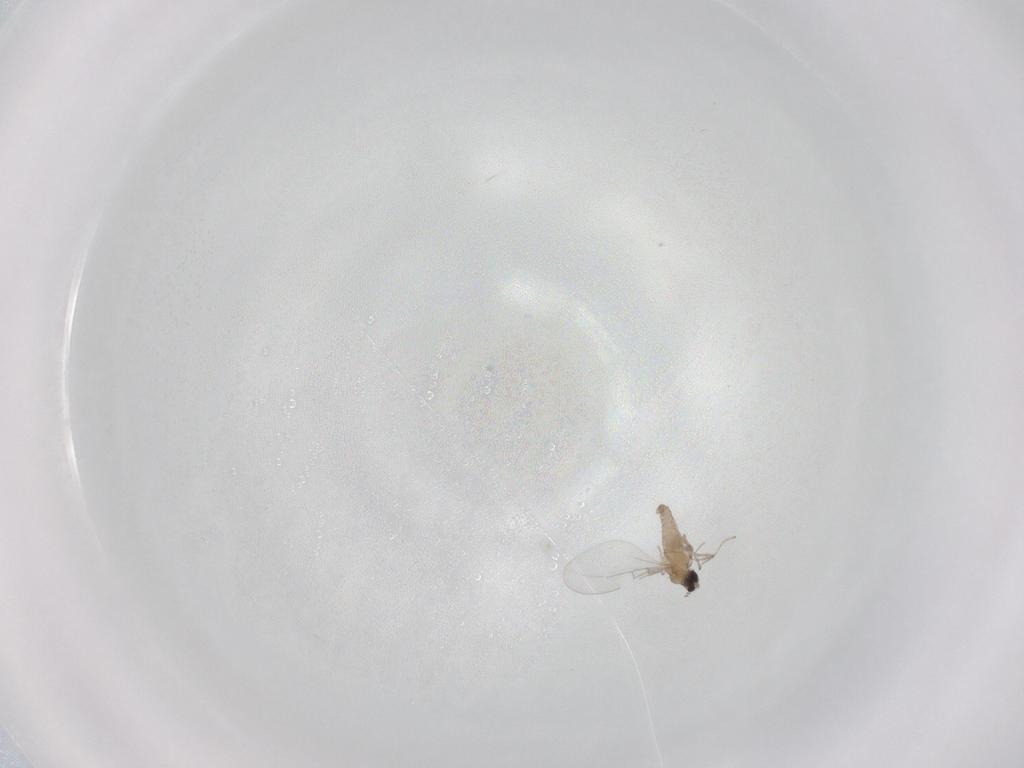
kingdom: Animalia
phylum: Arthropoda
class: Insecta
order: Diptera
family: Cecidomyiidae
